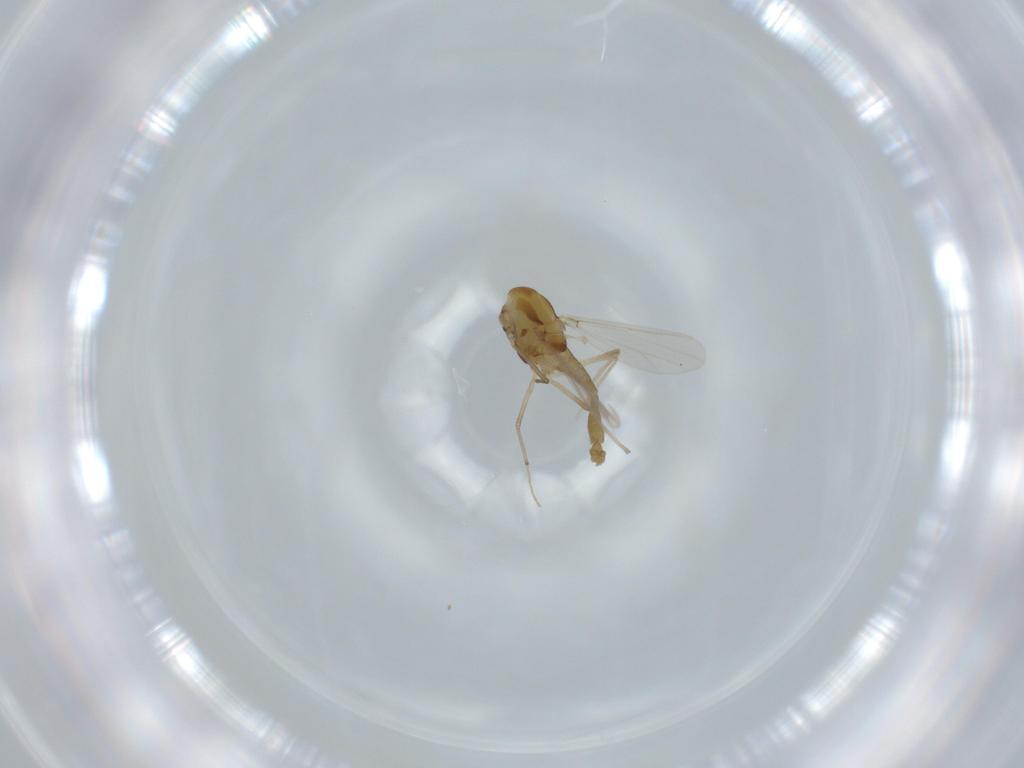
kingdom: Animalia
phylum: Arthropoda
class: Insecta
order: Diptera
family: Chironomidae
